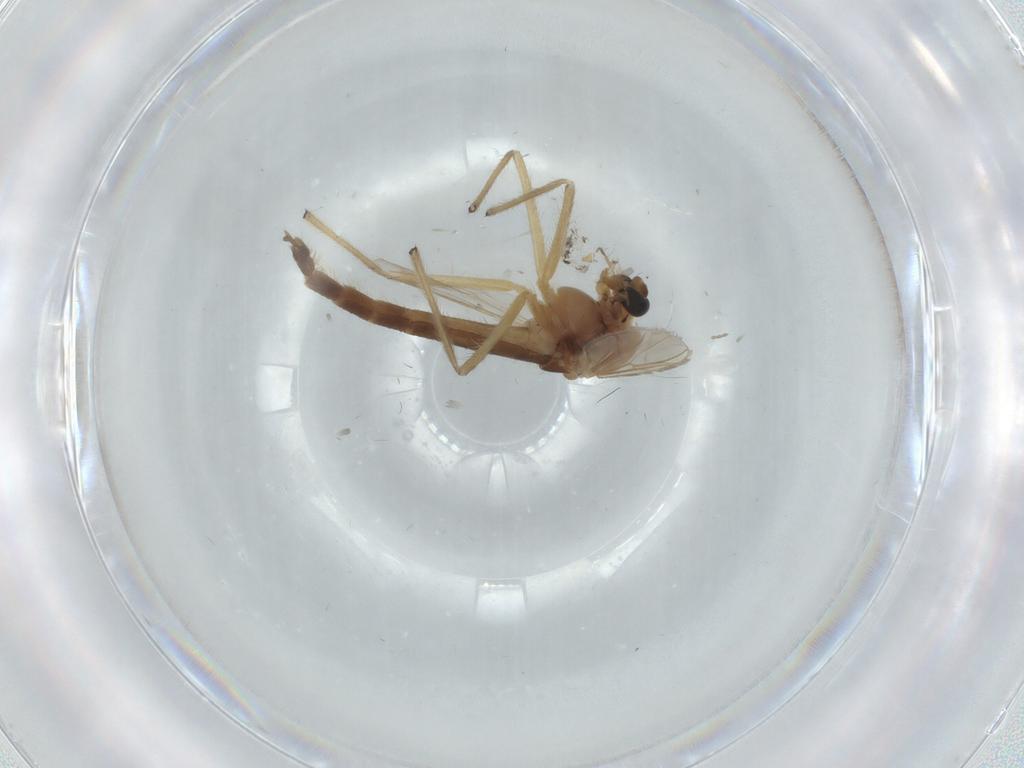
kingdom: Animalia
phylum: Arthropoda
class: Insecta
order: Diptera
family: Chironomidae
